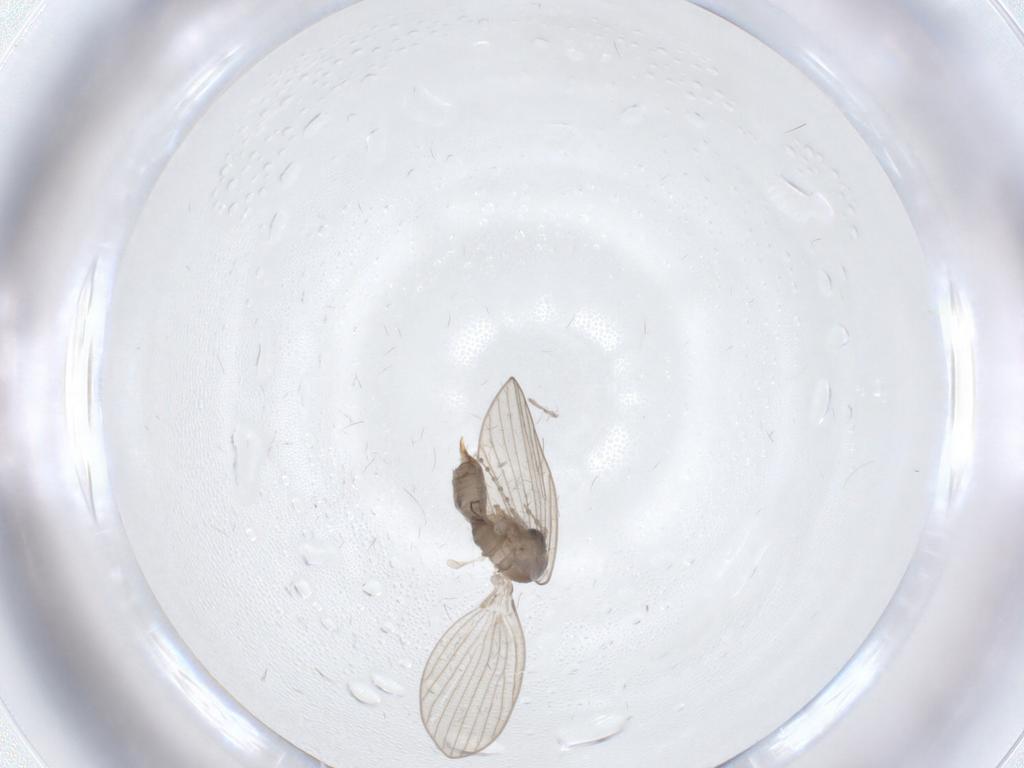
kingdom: Animalia
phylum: Arthropoda
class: Insecta
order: Diptera
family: Psychodidae
